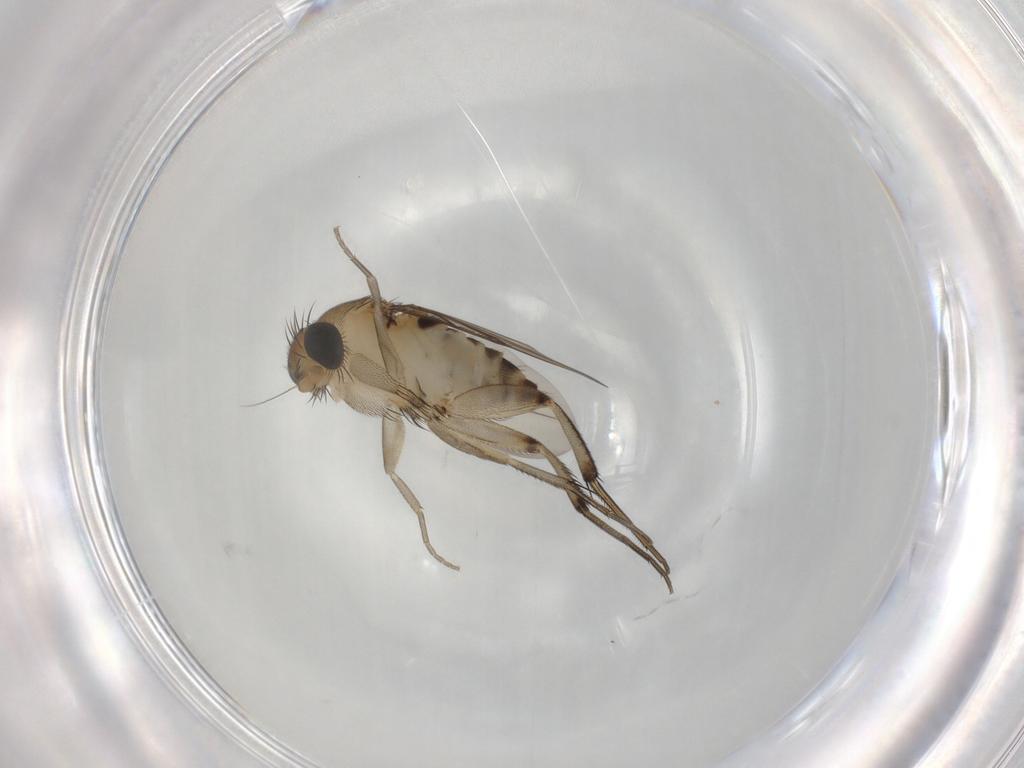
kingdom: Animalia
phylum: Arthropoda
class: Insecta
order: Diptera
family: Phoridae
